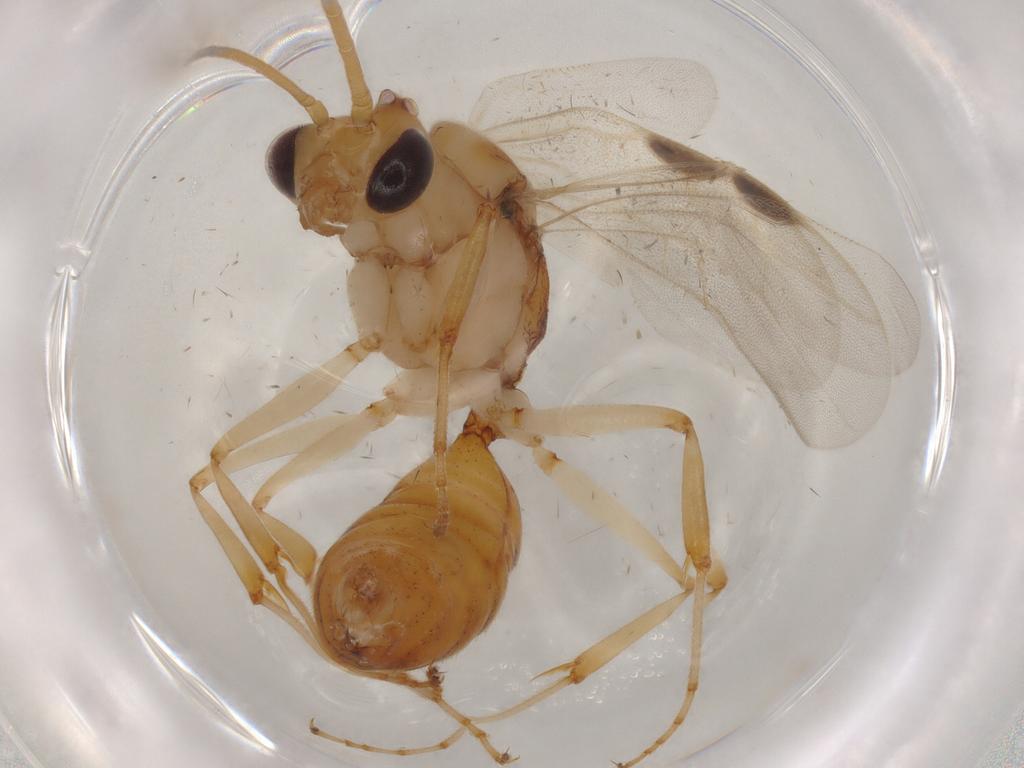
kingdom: Animalia
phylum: Arthropoda
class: Insecta
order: Hymenoptera
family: Formicidae
